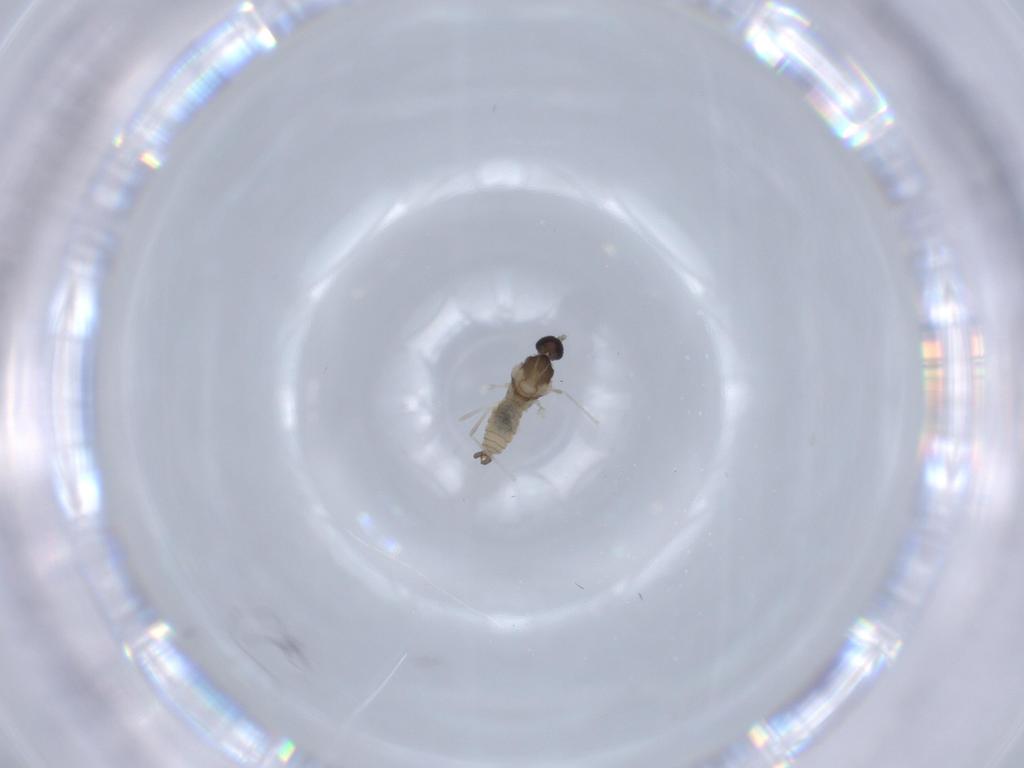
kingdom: Animalia
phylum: Arthropoda
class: Insecta
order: Diptera
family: Cecidomyiidae
